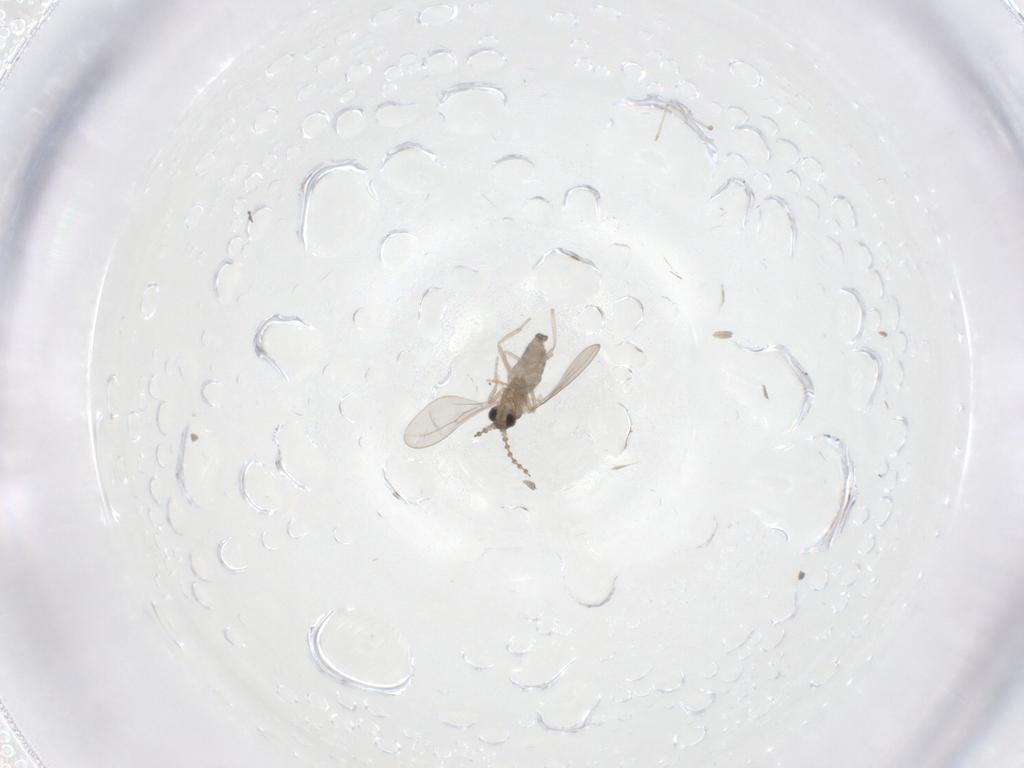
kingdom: Animalia
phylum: Arthropoda
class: Insecta
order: Diptera
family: Cecidomyiidae
